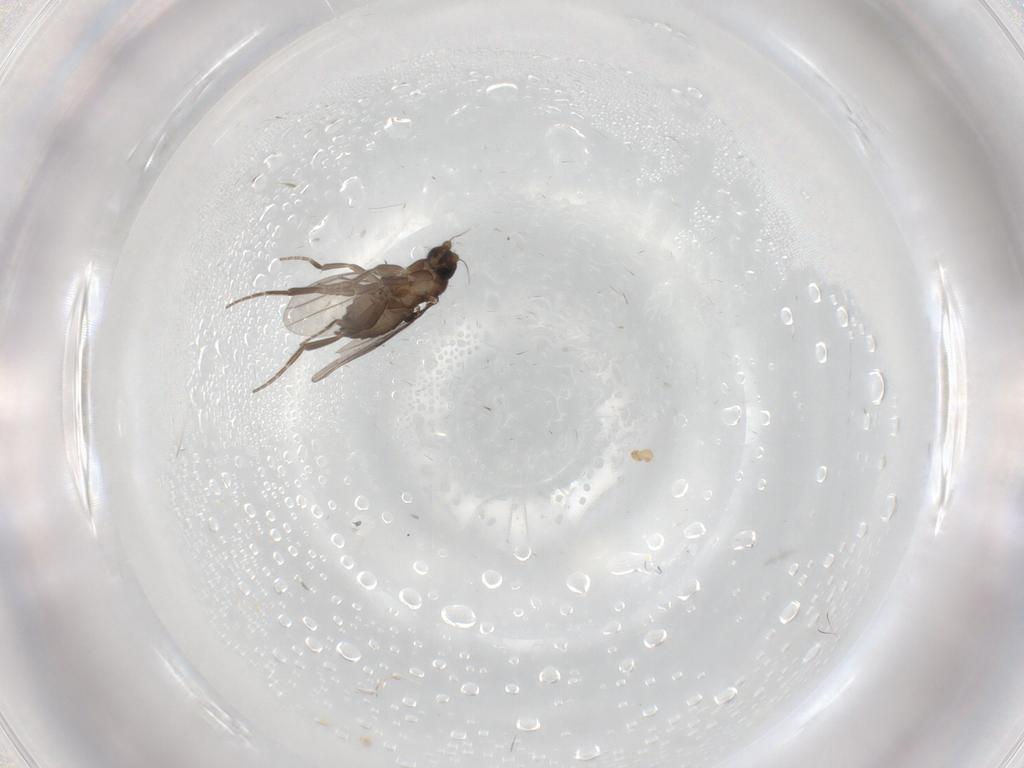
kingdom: Animalia
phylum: Arthropoda
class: Insecta
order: Diptera
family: Phoridae
